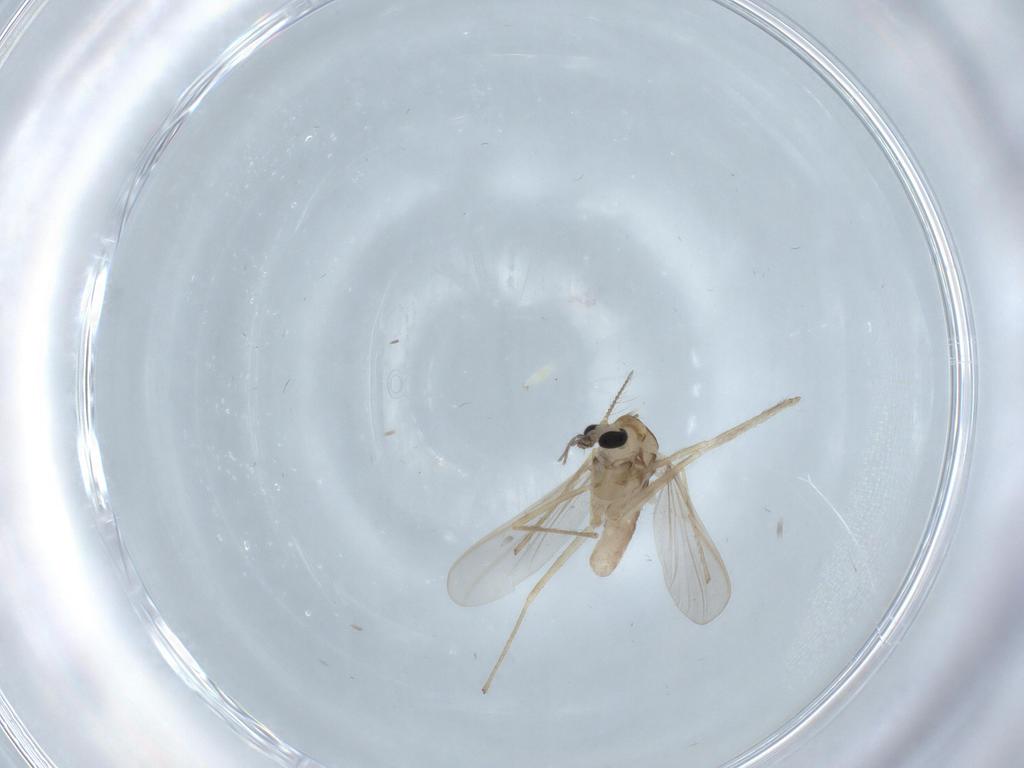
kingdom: Animalia
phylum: Arthropoda
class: Insecta
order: Diptera
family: Chironomidae
